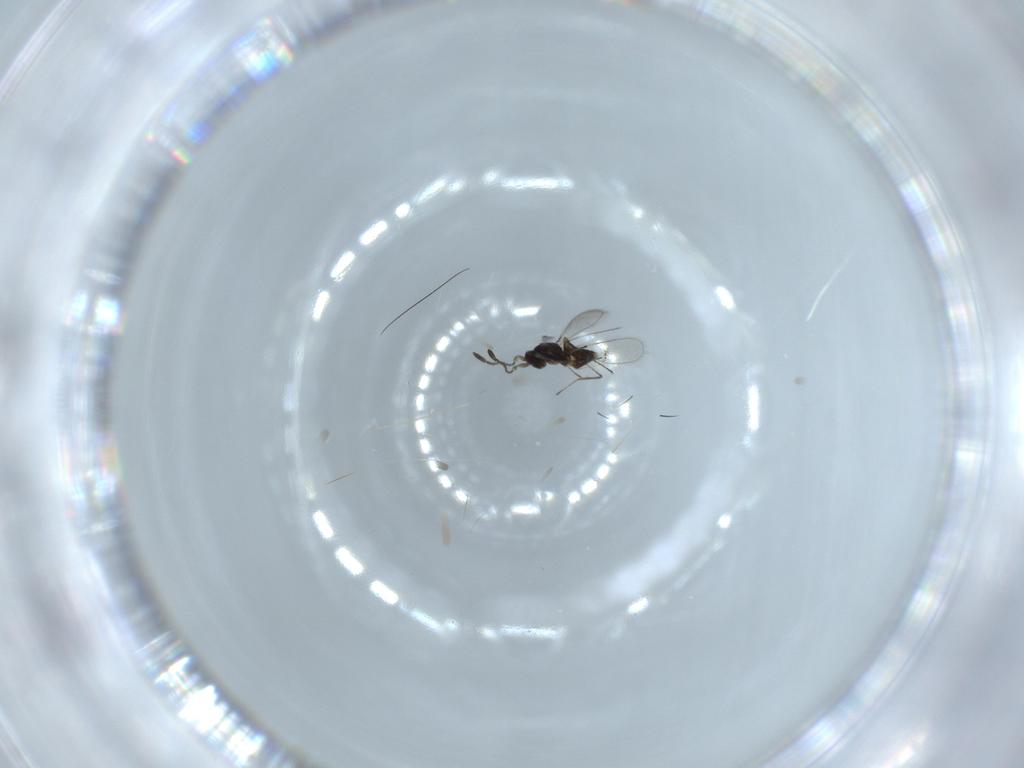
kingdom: Animalia
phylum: Arthropoda
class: Insecta
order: Hymenoptera
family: Mymaridae
